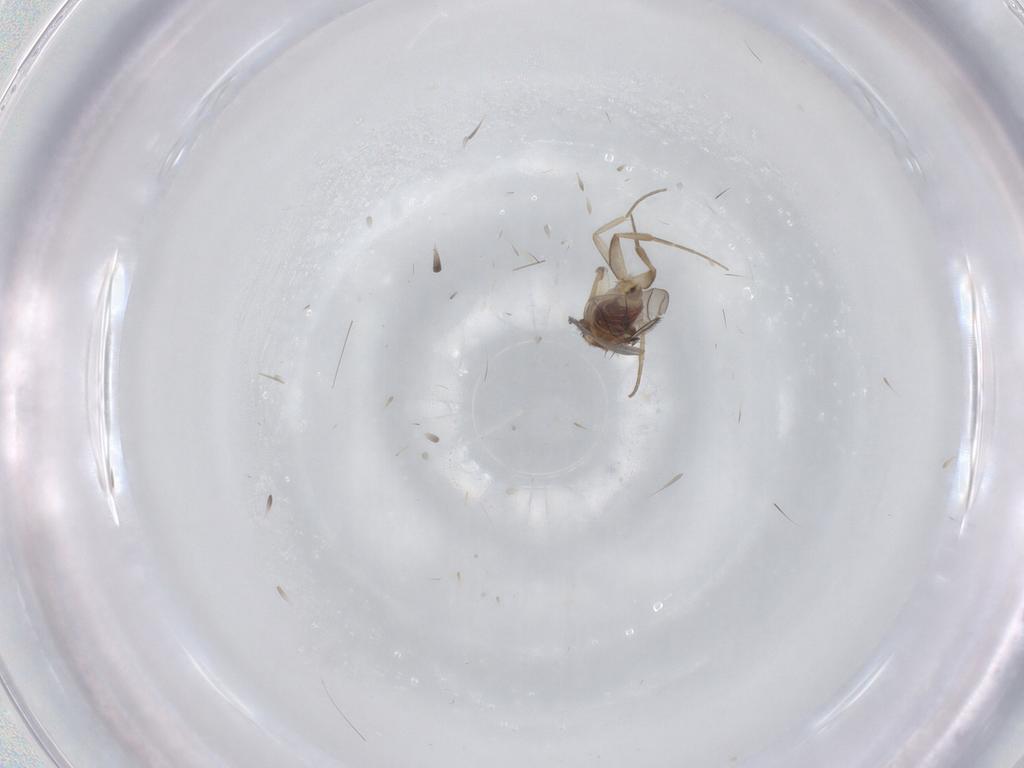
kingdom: Animalia
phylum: Arthropoda
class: Insecta
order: Diptera
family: Phoridae
